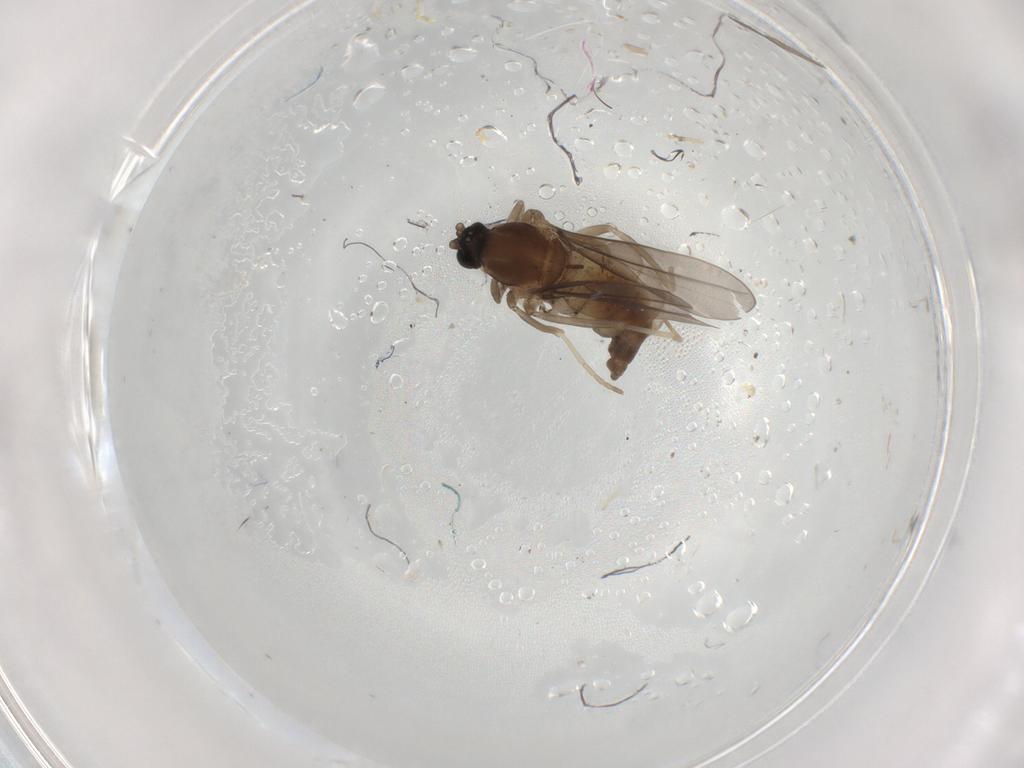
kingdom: Animalia
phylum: Arthropoda
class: Insecta
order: Diptera
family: Cecidomyiidae
